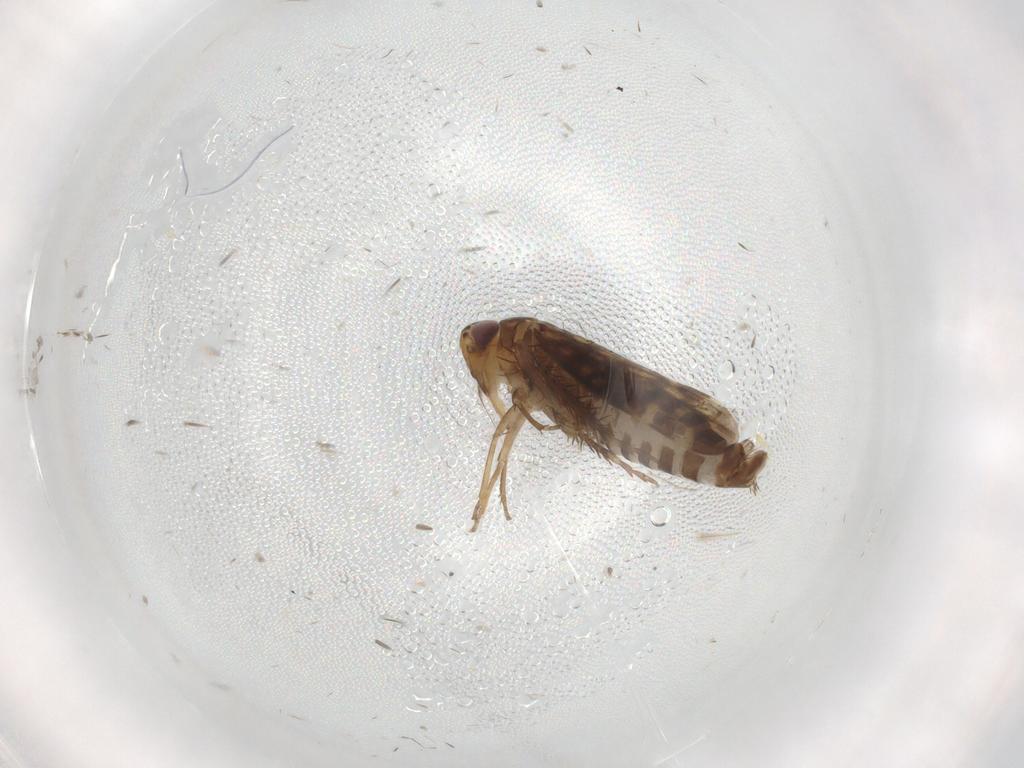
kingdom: Animalia
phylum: Arthropoda
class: Insecta
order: Hemiptera
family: Cicadellidae
